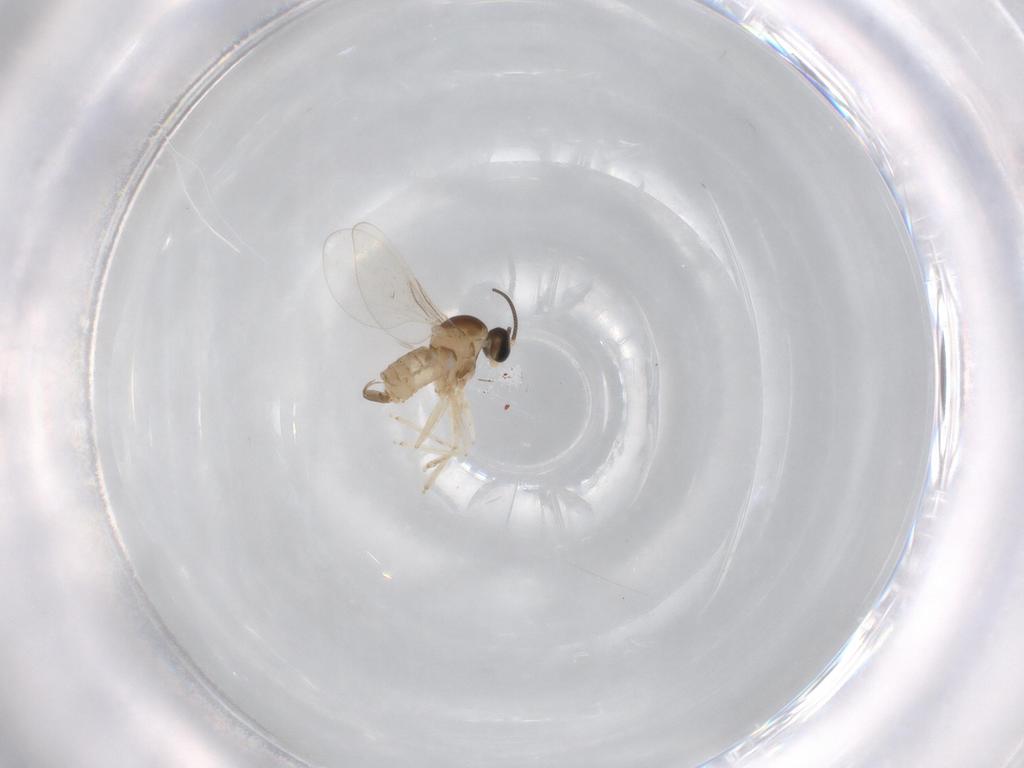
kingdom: Animalia
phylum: Arthropoda
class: Insecta
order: Diptera
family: Cecidomyiidae
